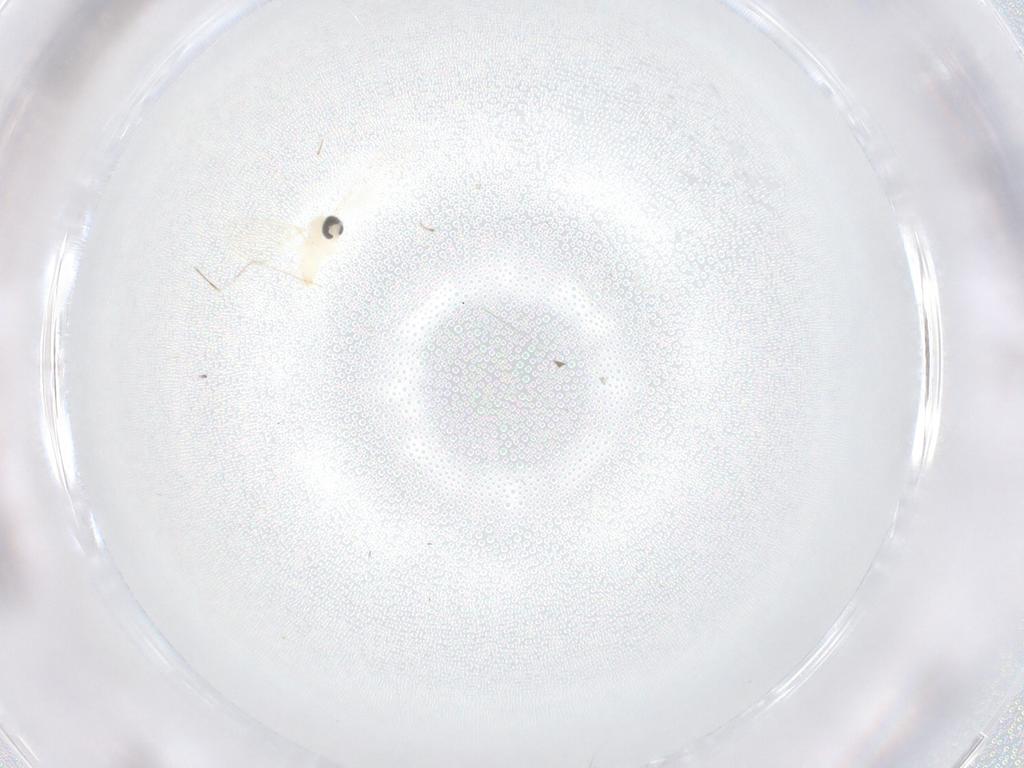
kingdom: Animalia
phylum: Arthropoda
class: Insecta
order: Diptera
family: Cecidomyiidae
